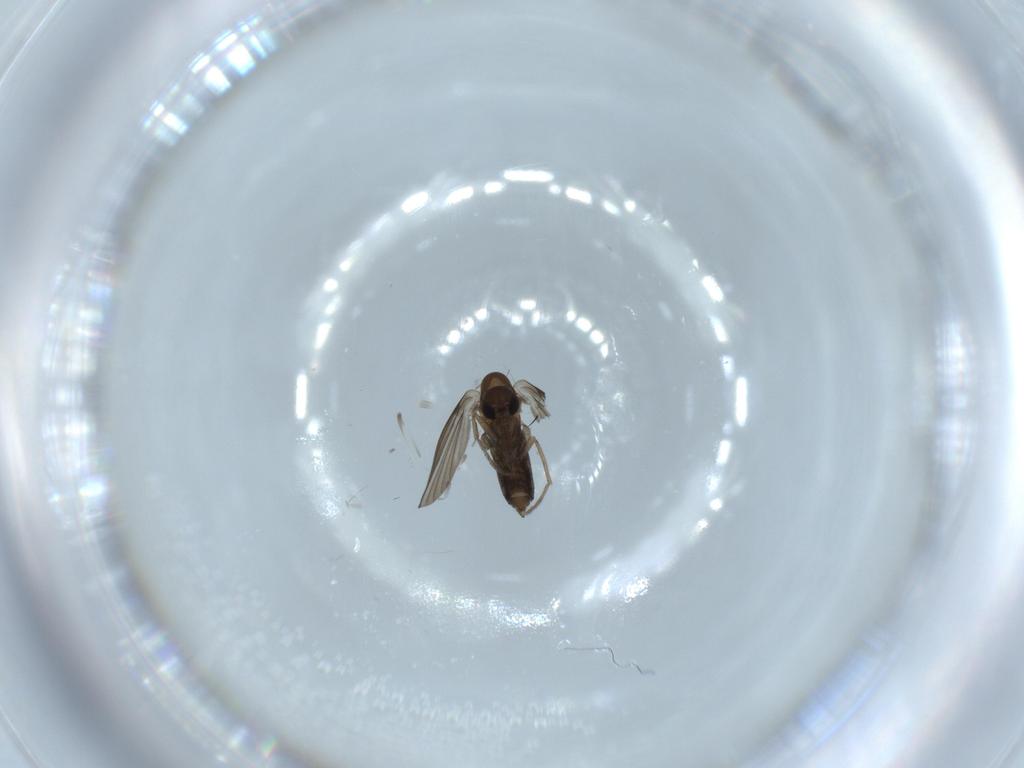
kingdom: Animalia
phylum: Arthropoda
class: Insecta
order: Diptera
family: Dolichopodidae
